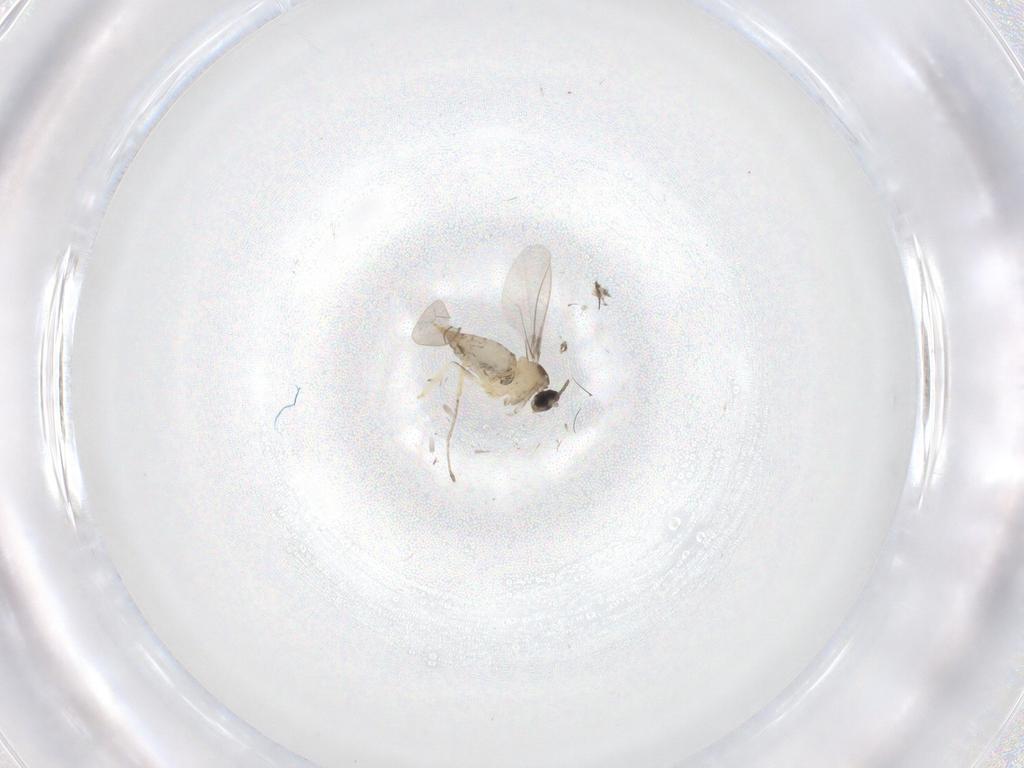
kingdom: Animalia
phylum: Arthropoda
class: Insecta
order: Diptera
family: Cecidomyiidae
